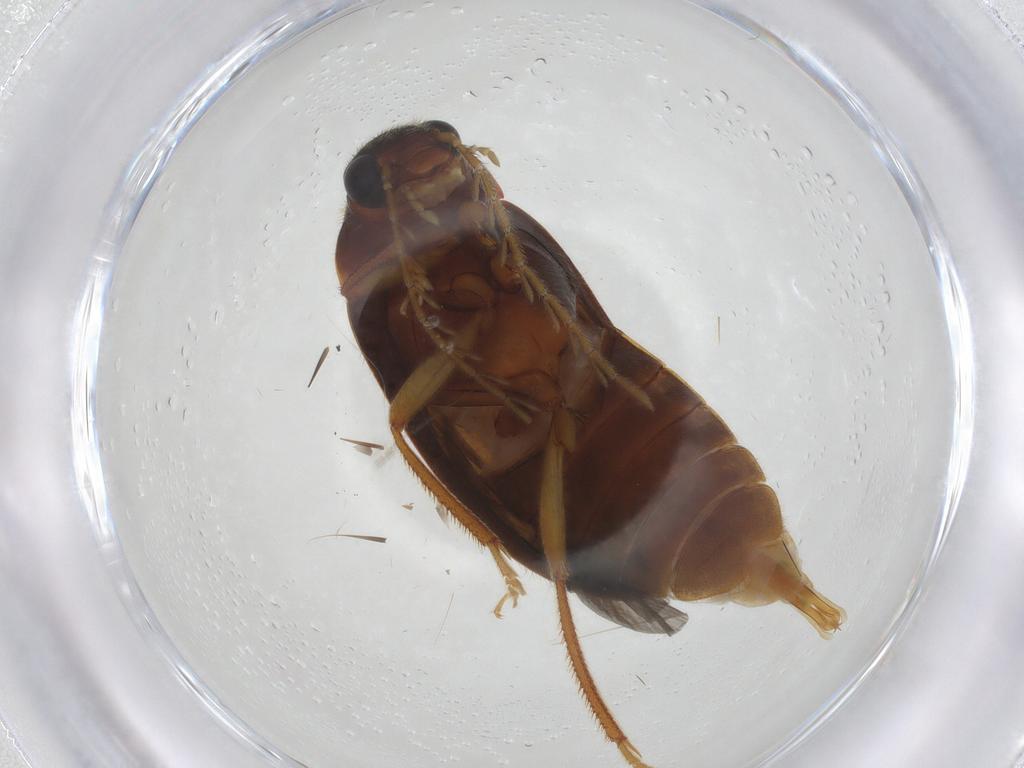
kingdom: Animalia
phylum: Arthropoda
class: Insecta
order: Coleoptera
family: Ptilodactylidae
